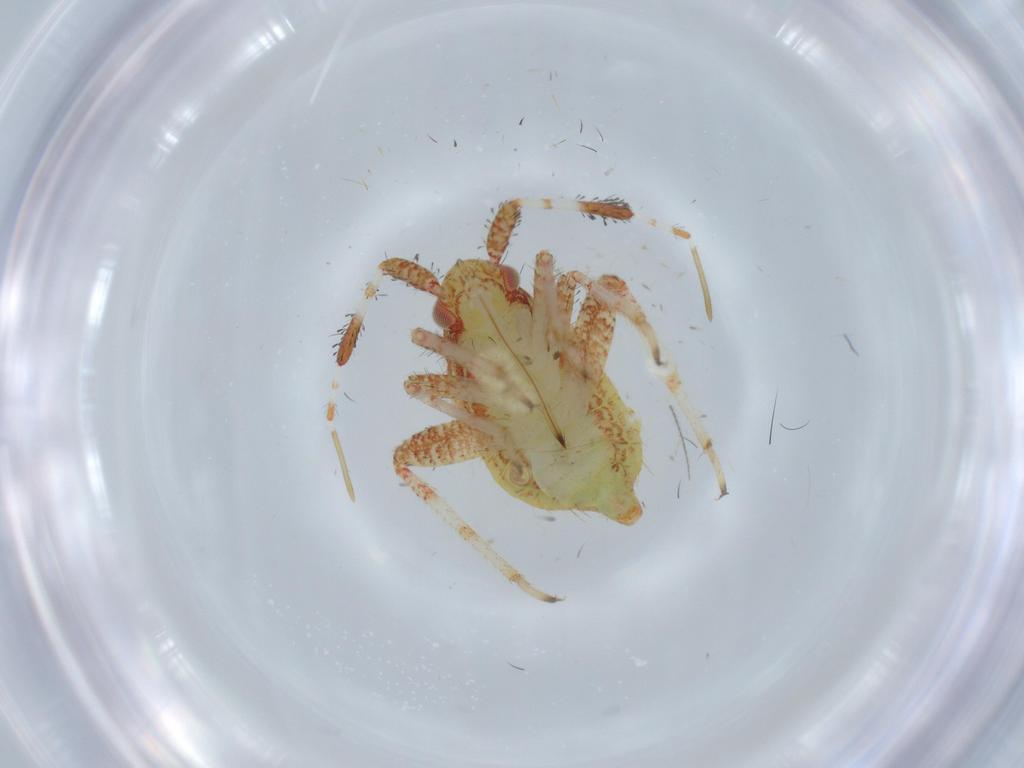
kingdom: Animalia
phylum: Arthropoda
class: Insecta
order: Hemiptera
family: Miridae
